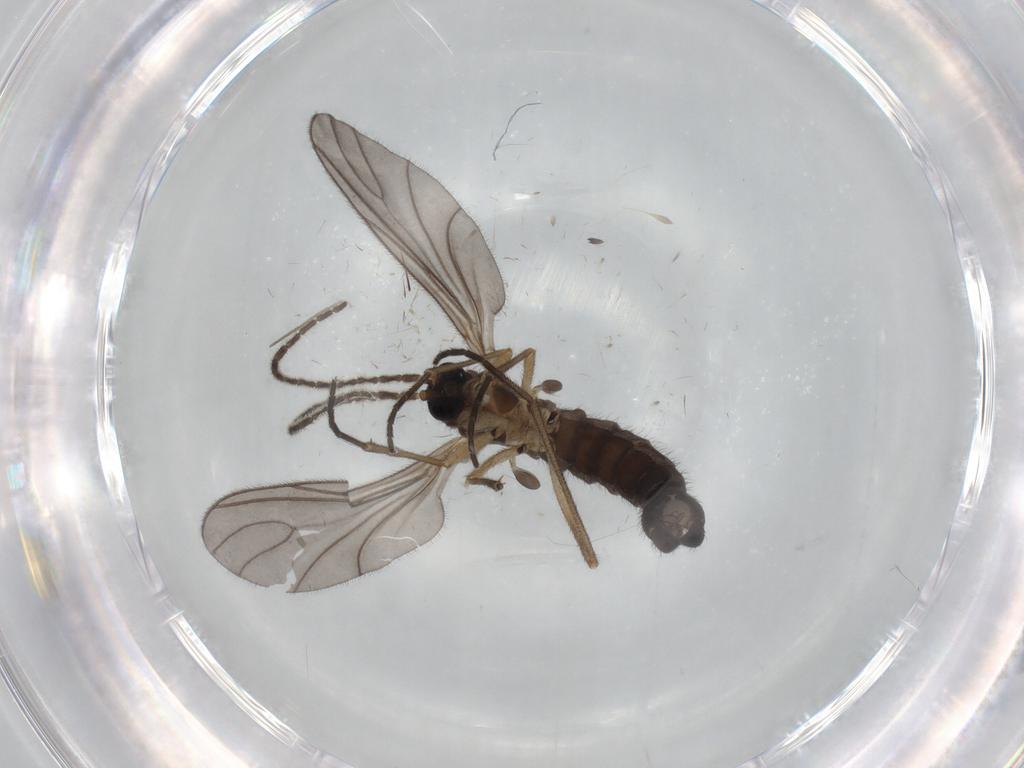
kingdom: Animalia
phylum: Arthropoda
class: Insecta
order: Diptera
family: Sciaridae
